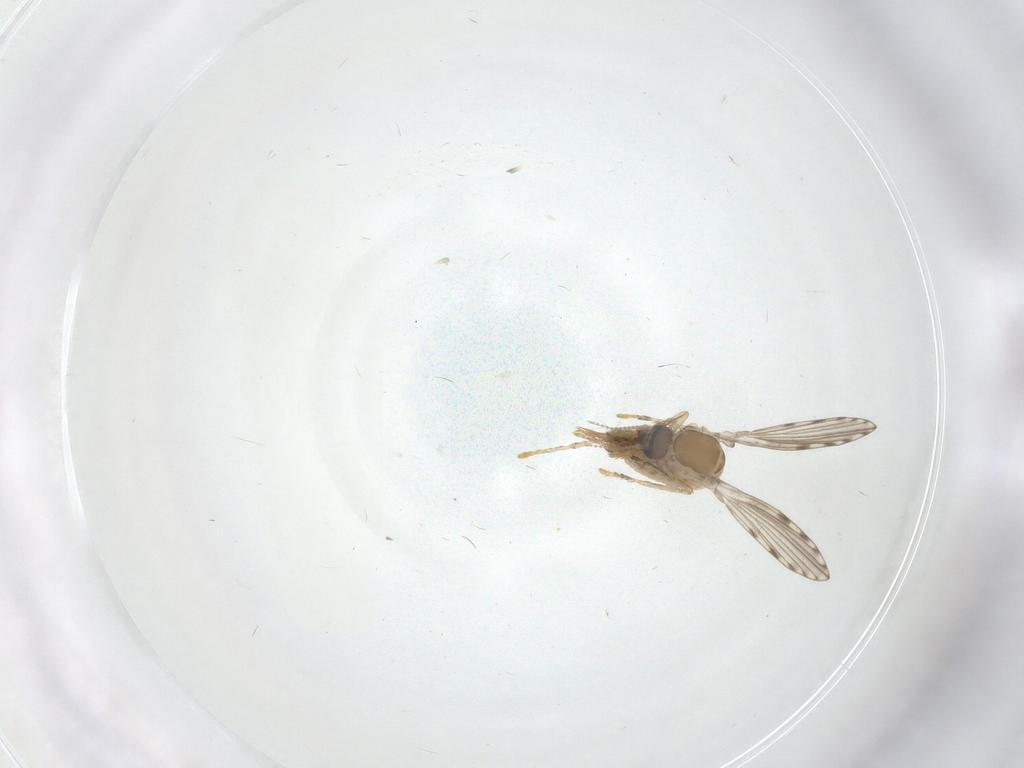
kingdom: Animalia
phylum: Arthropoda
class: Insecta
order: Diptera
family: Psychodidae
